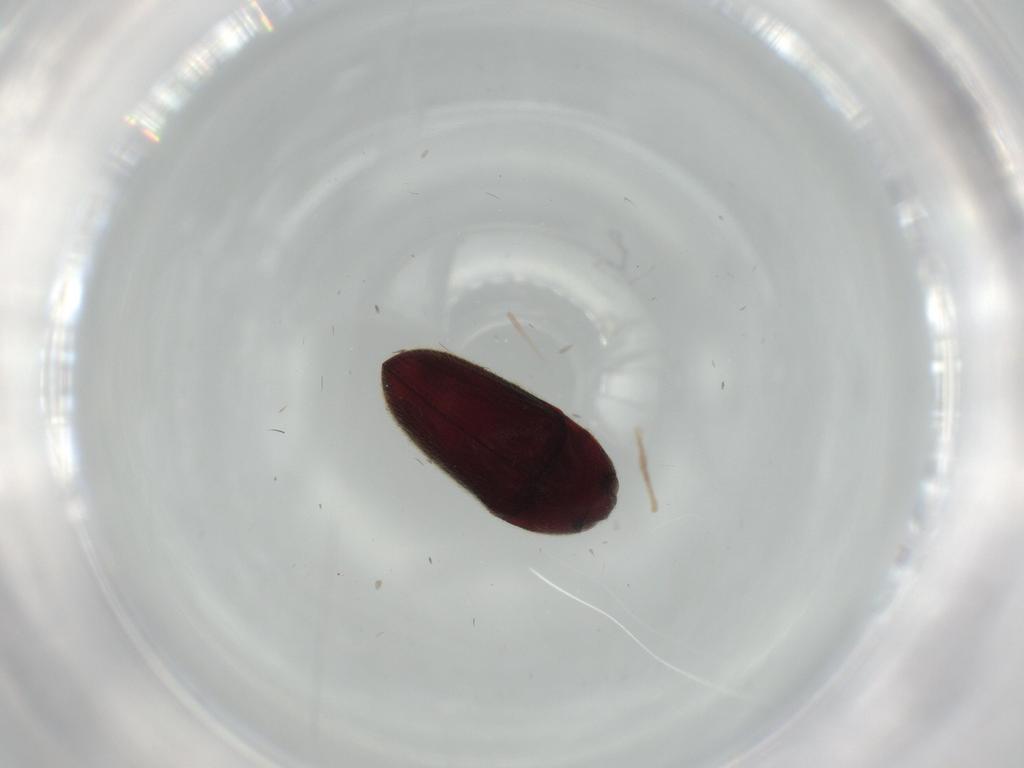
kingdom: Animalia
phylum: Arthropoda
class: Insecta
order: Coleoptera
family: Throscidae
